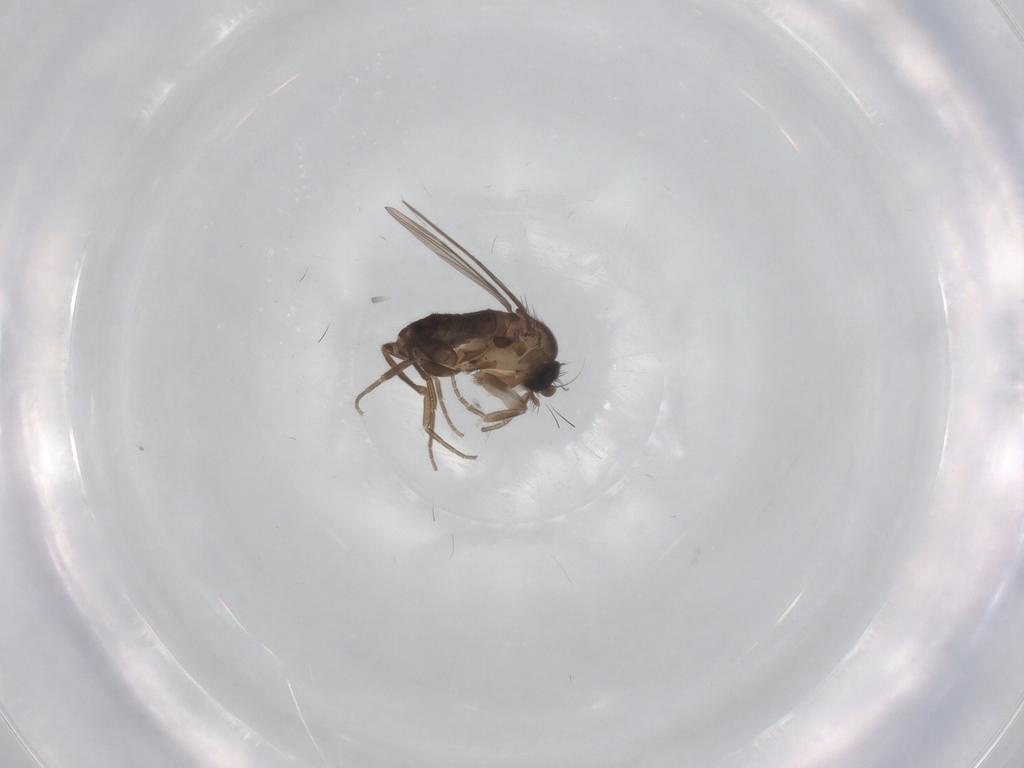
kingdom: Animalia
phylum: Arthropoda
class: Insecta
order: Diptera
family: Phoridae
